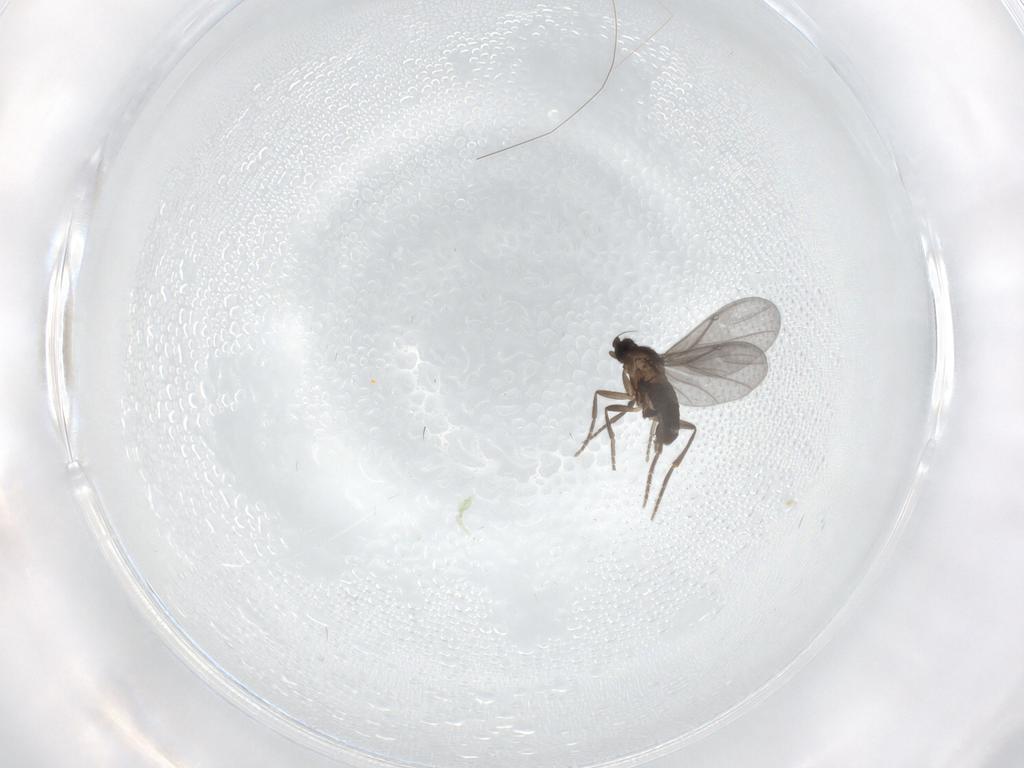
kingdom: Animalia
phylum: Arthropoda
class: Insecta
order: Diptera
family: Phoridae
